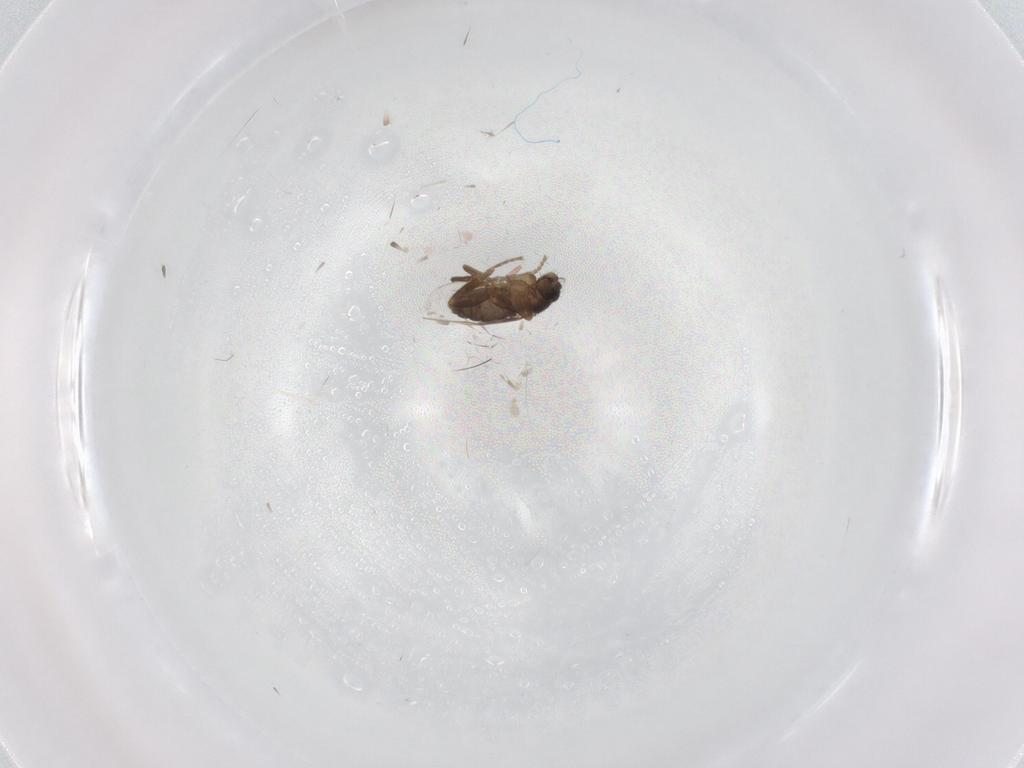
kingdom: Animalia
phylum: Arthropoda
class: Insecta
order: Diptera
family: Phoridae
